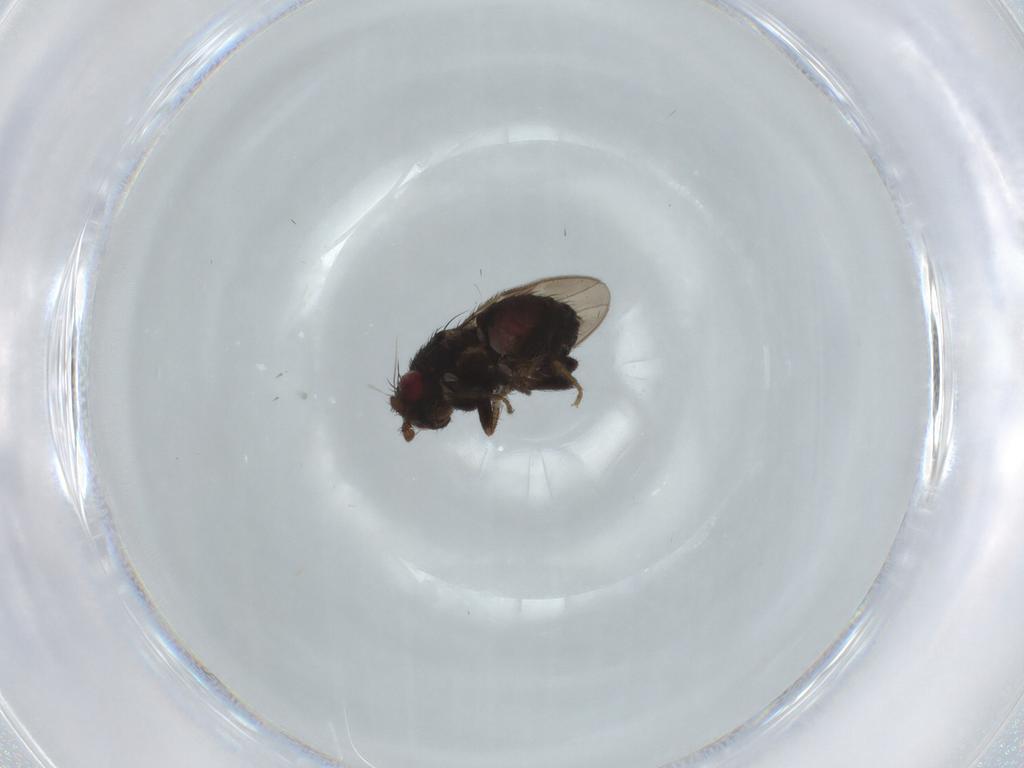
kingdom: Animalia
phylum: Arthropoda
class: Insecta
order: Diptera
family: Sphaeroceridae
